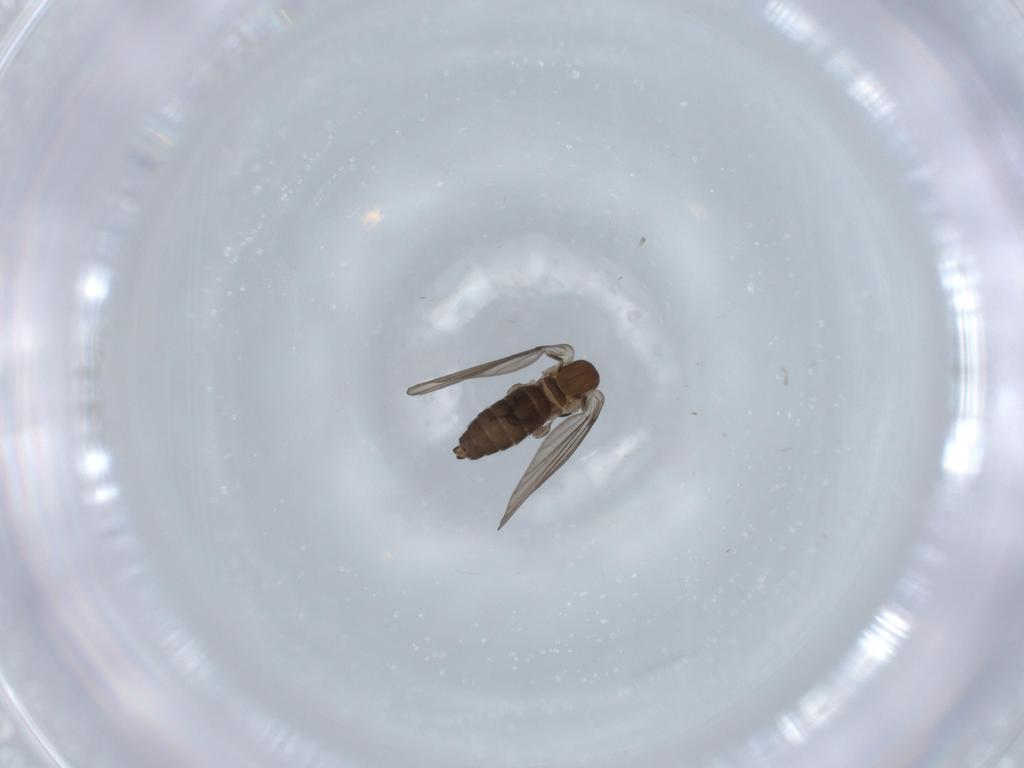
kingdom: Animalia
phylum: Arthropoda
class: Insecta
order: Diptera
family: Psychodidae
